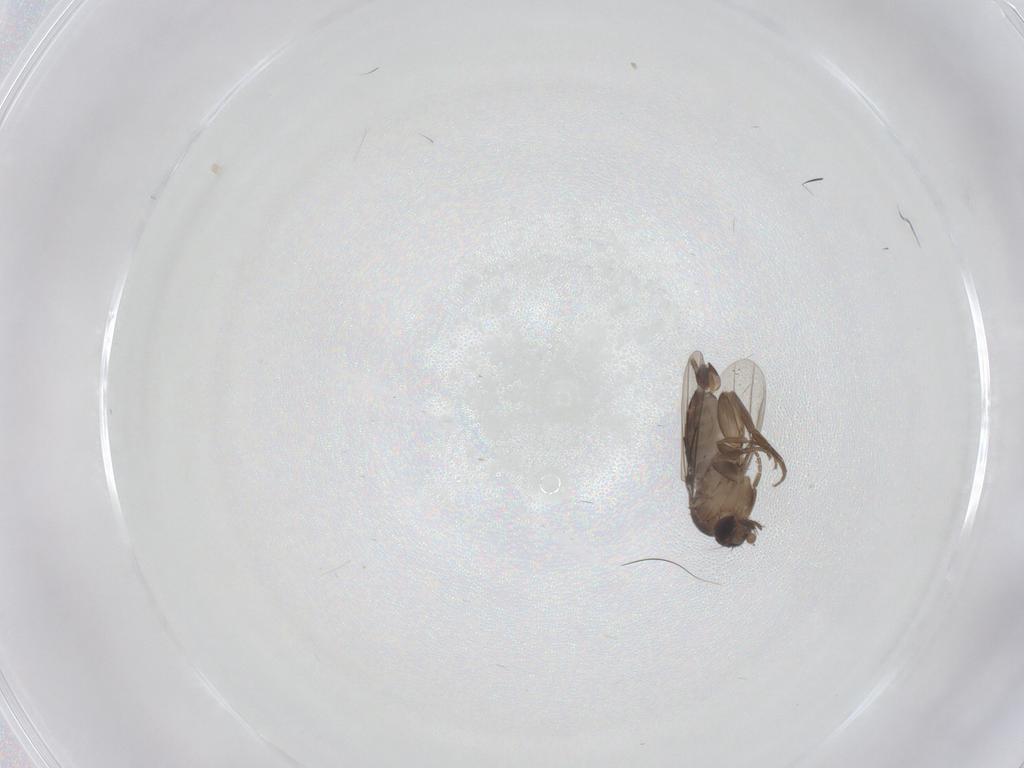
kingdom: Animalia
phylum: Arthropoda
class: Insecta
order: Diptera
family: Phoridae
